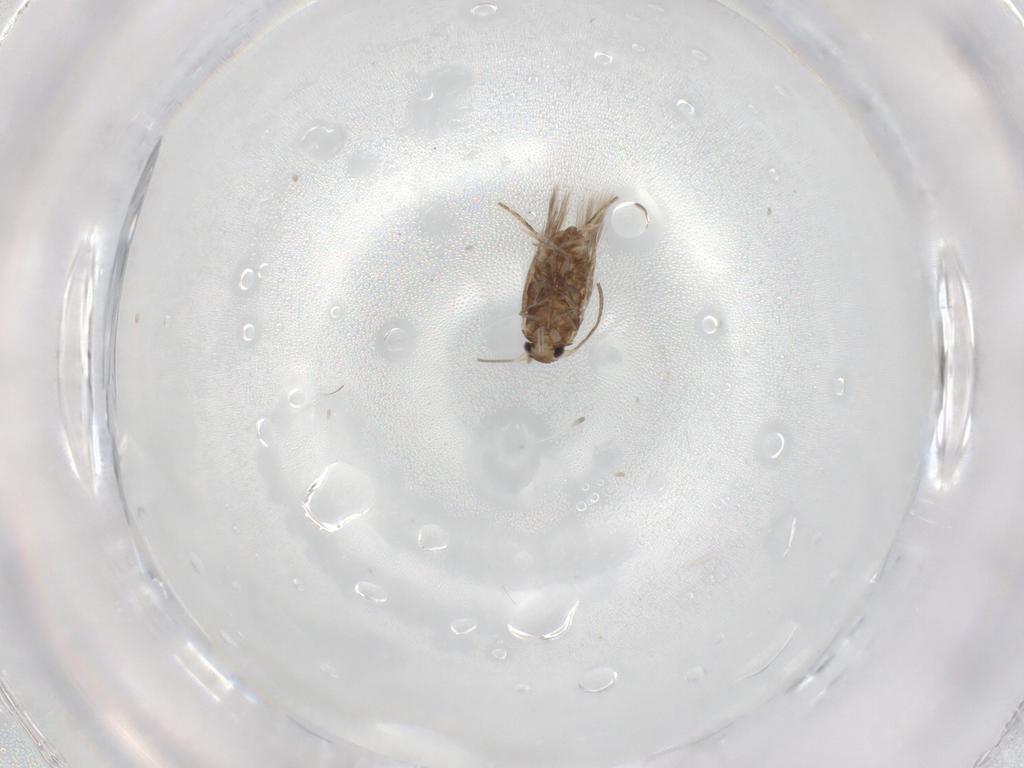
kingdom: Animalia
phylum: Arthropoda
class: Insecta
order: Lepidoptera
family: Nymphalidae
